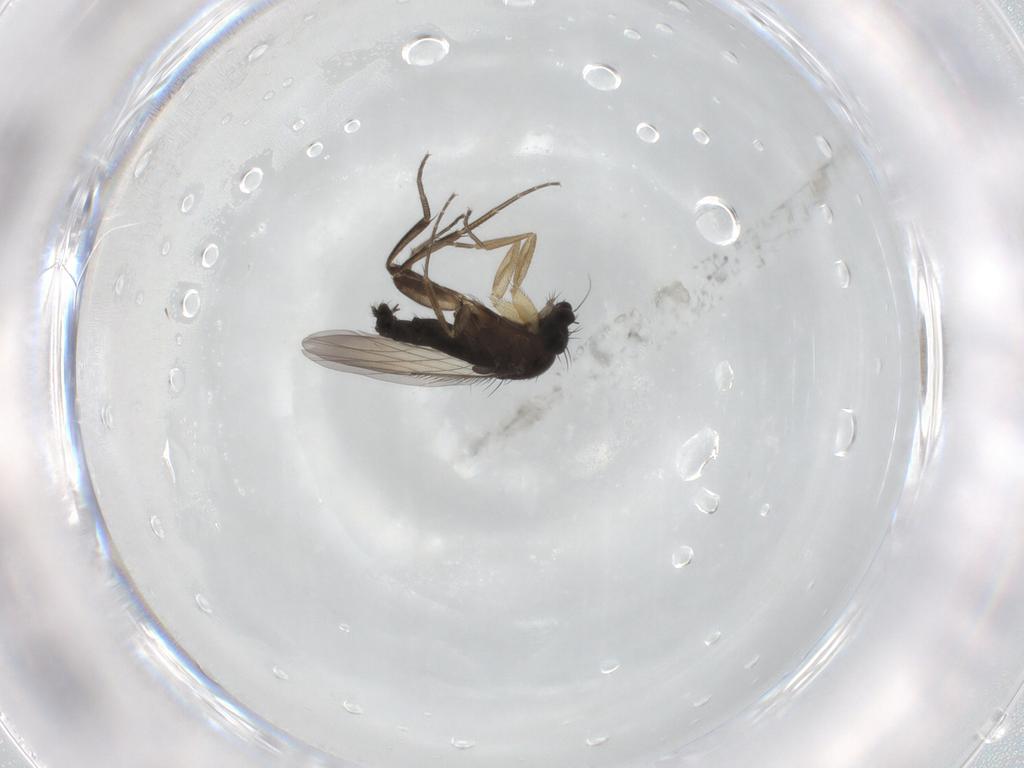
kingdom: Animalia
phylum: Arthropoda
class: Insecta
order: Diptera
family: Phoridae
